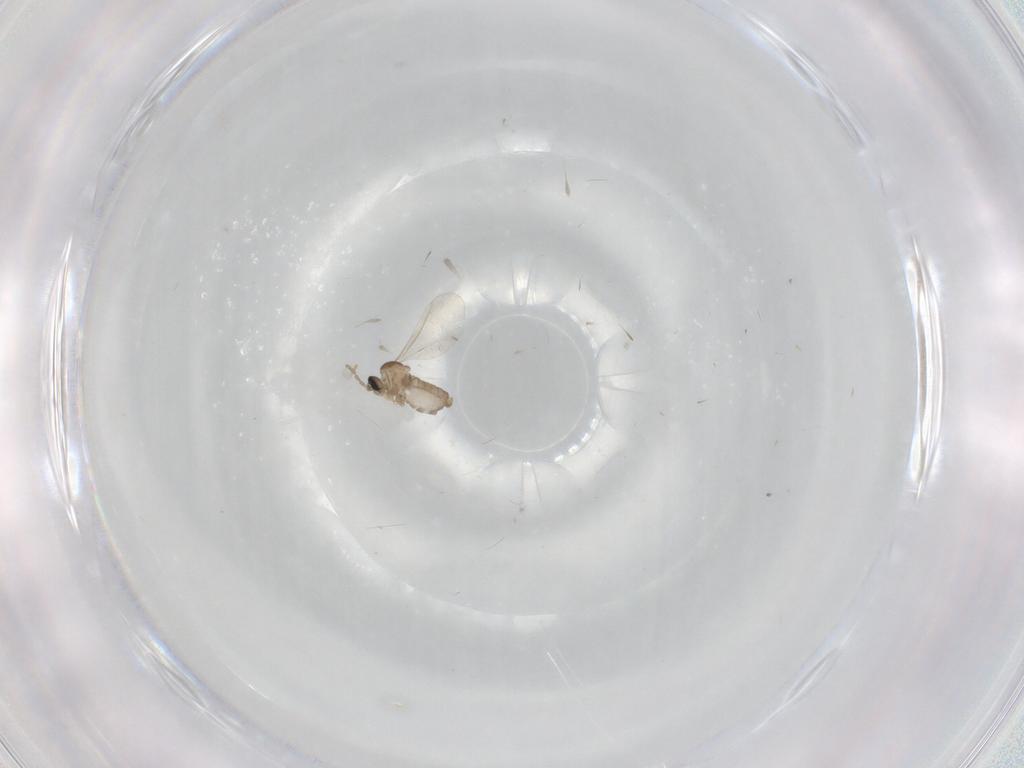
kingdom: Animalia
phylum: Arthropoda
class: Insecta
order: Diptera
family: Cecidomyiidae
